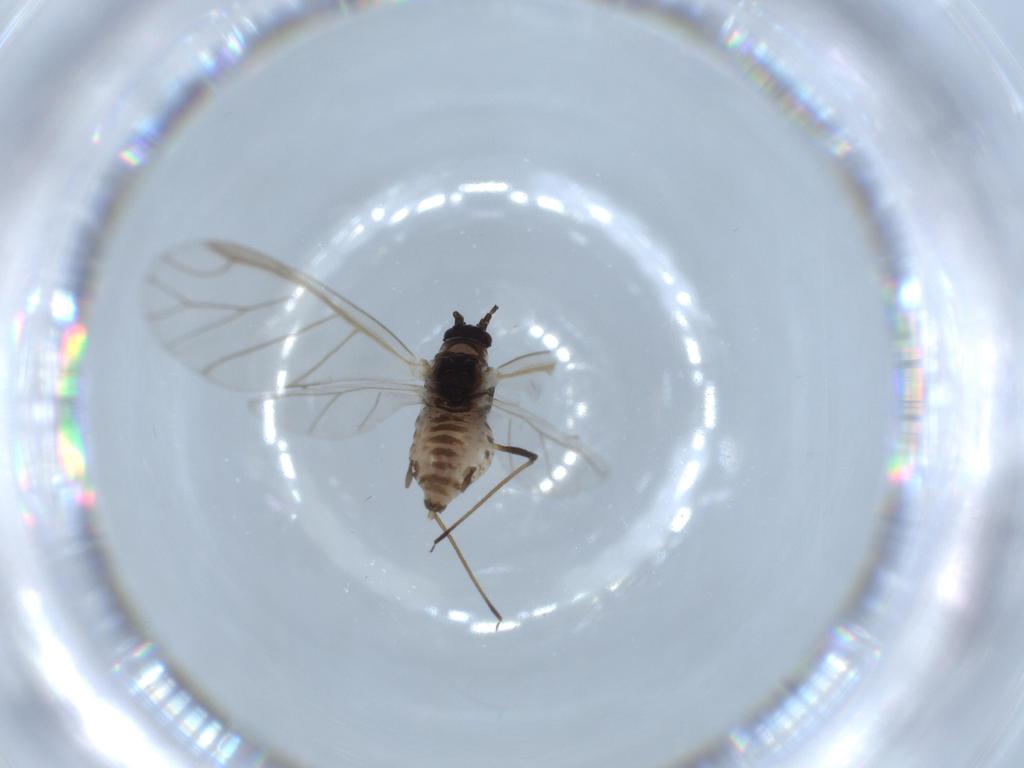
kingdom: Animalia
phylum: Arthropoda
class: Insecta
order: Hemiptera
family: Aphididae
